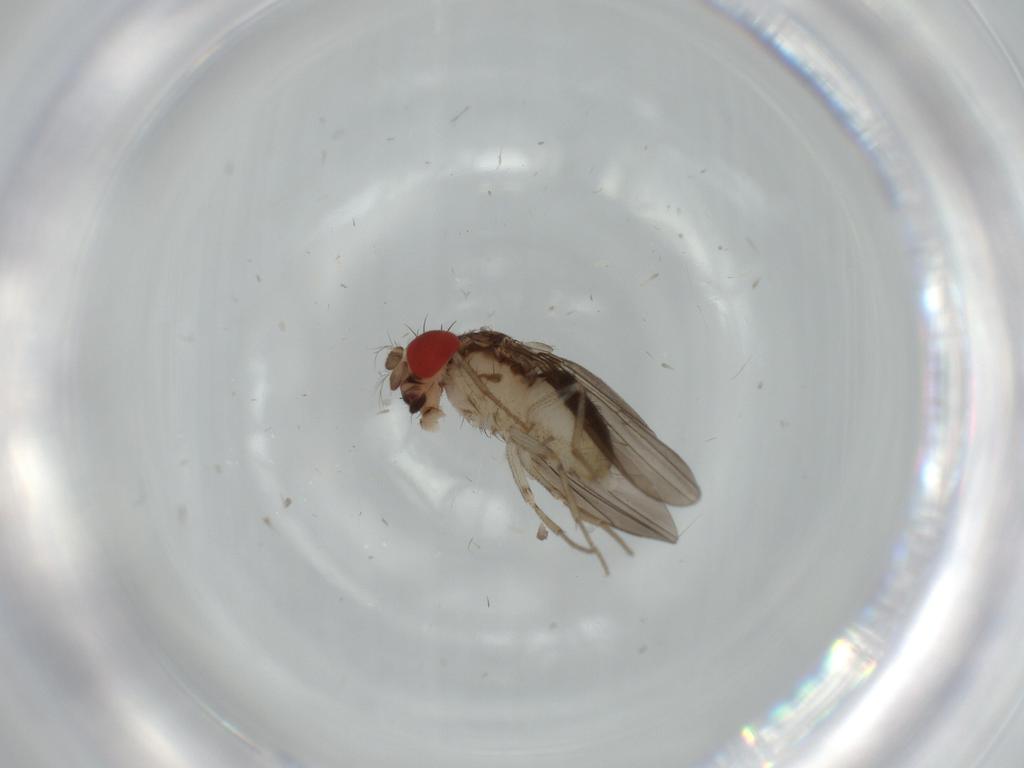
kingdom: Animalia
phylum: Arthropoda
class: Insecta
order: Diptera
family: Drosophilidae
